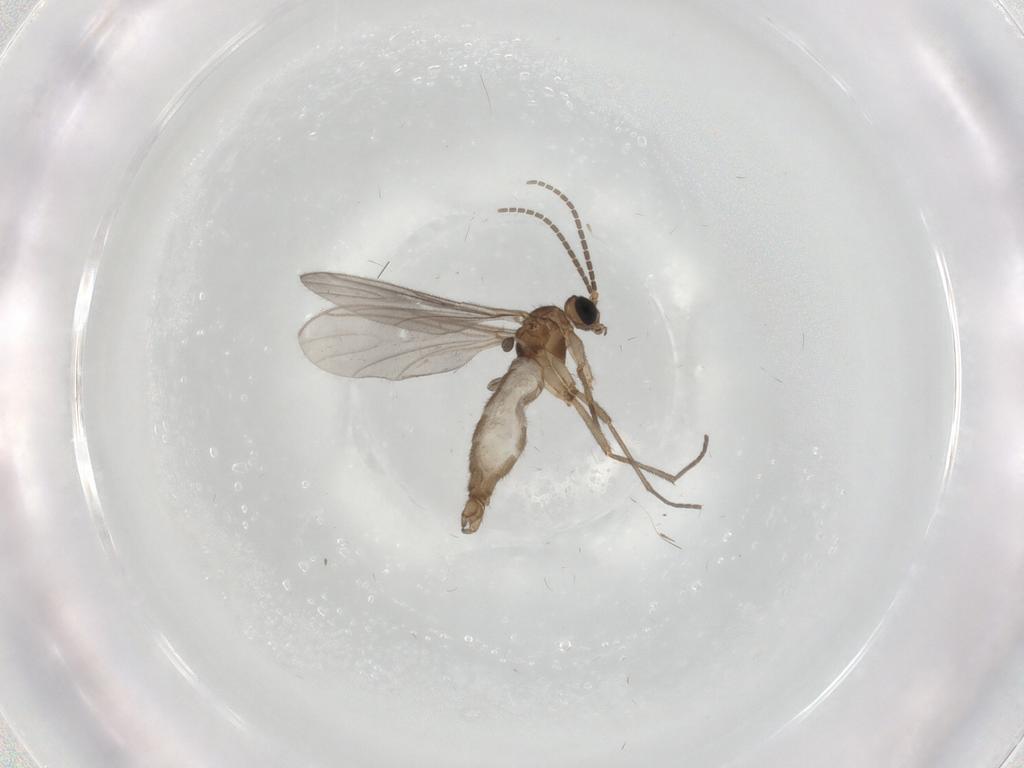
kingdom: Animalia
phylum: Arthropoda
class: Insecta
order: Diptera
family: Sciaridae
